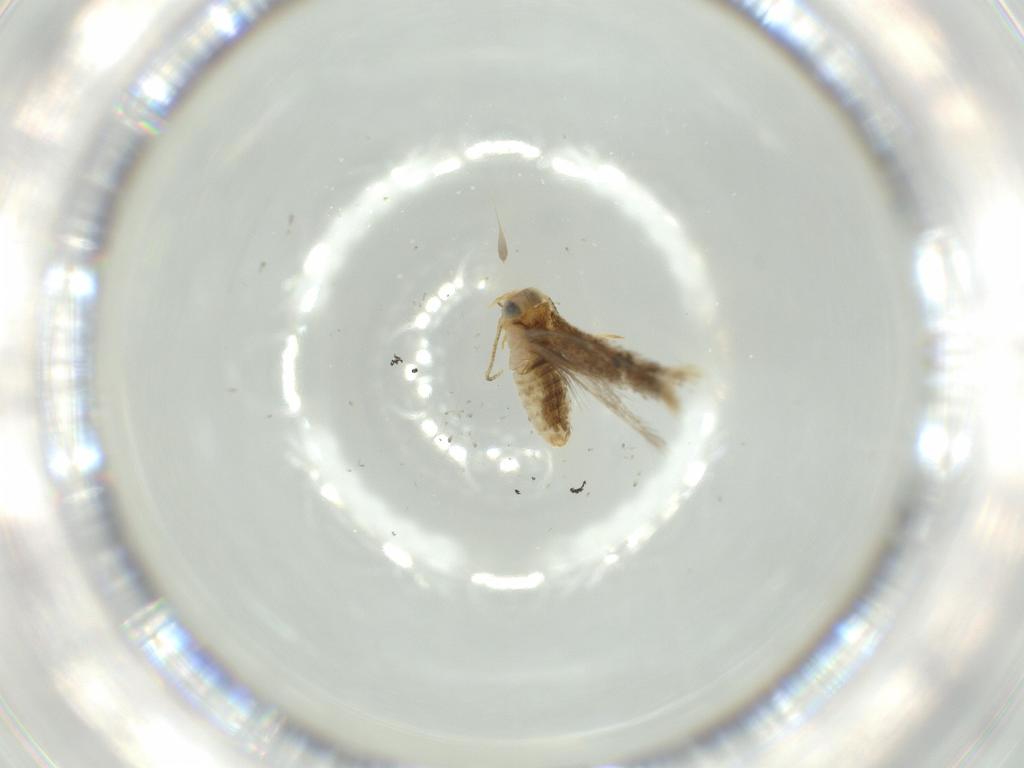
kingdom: Animalia
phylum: Arthropoda
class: Insecta
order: Lepidoptera
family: Nepticulidae
